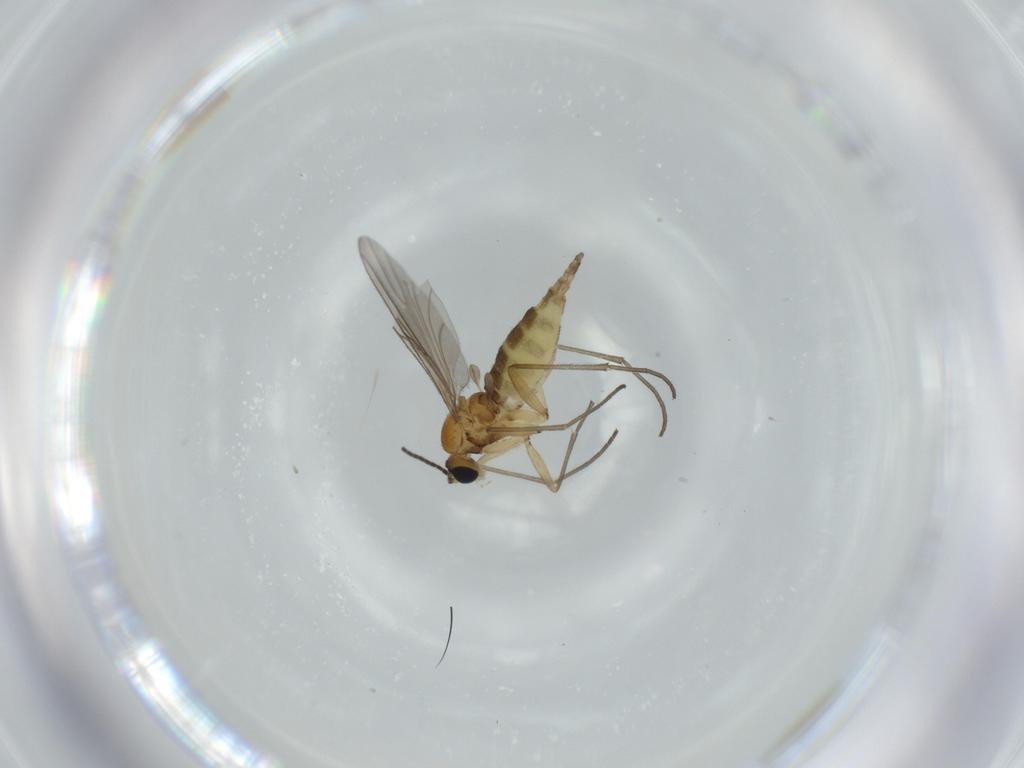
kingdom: Animalia
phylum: Arthropoda
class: Insecta
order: Diptera
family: Dolichopodidae
